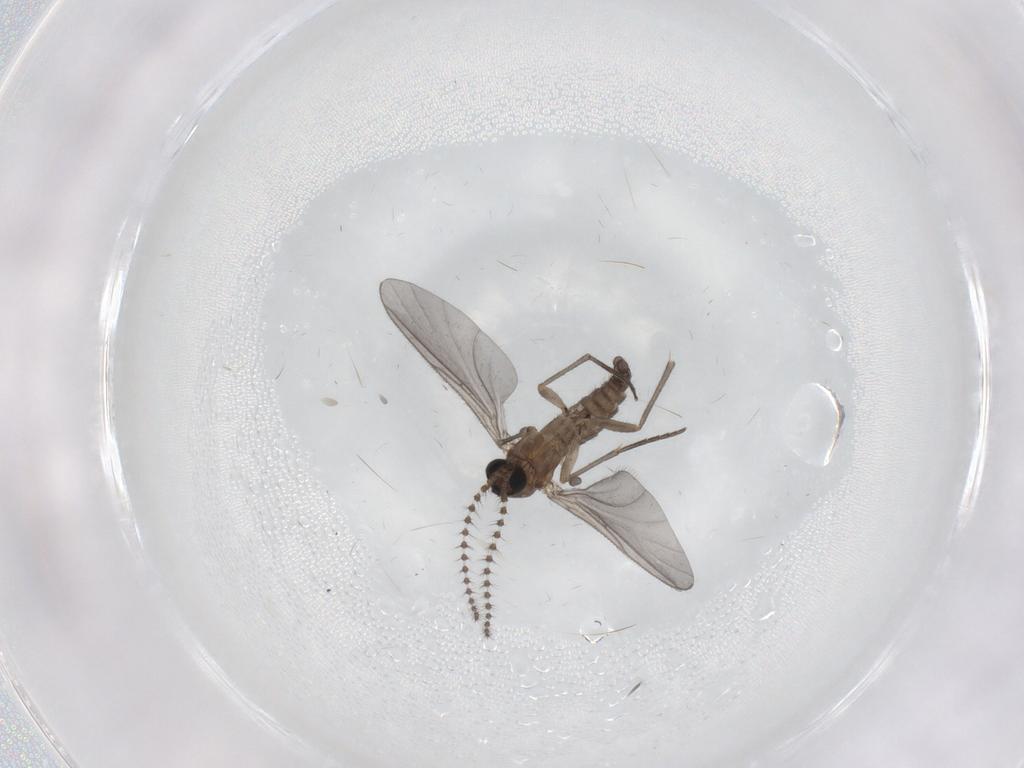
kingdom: Animalia
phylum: Arthropoda
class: Insecta
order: Diptera
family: Sciaridae
